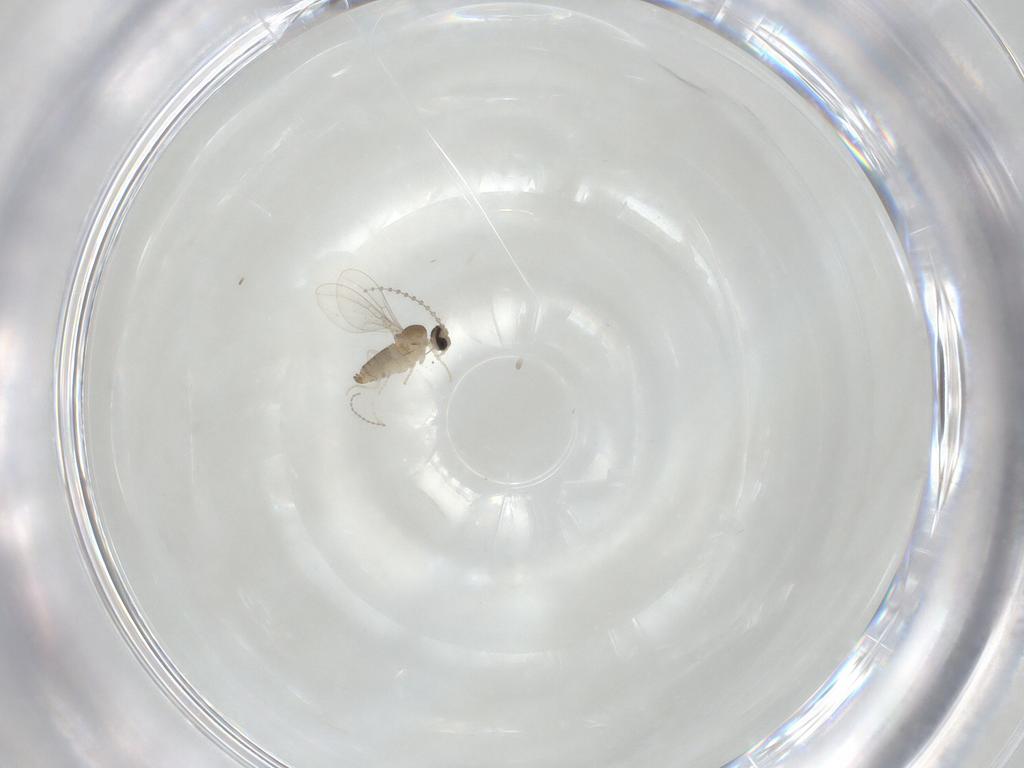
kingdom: Animalia
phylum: Arthropoda
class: Insecta
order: Diptera
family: Cecidomyiidae
